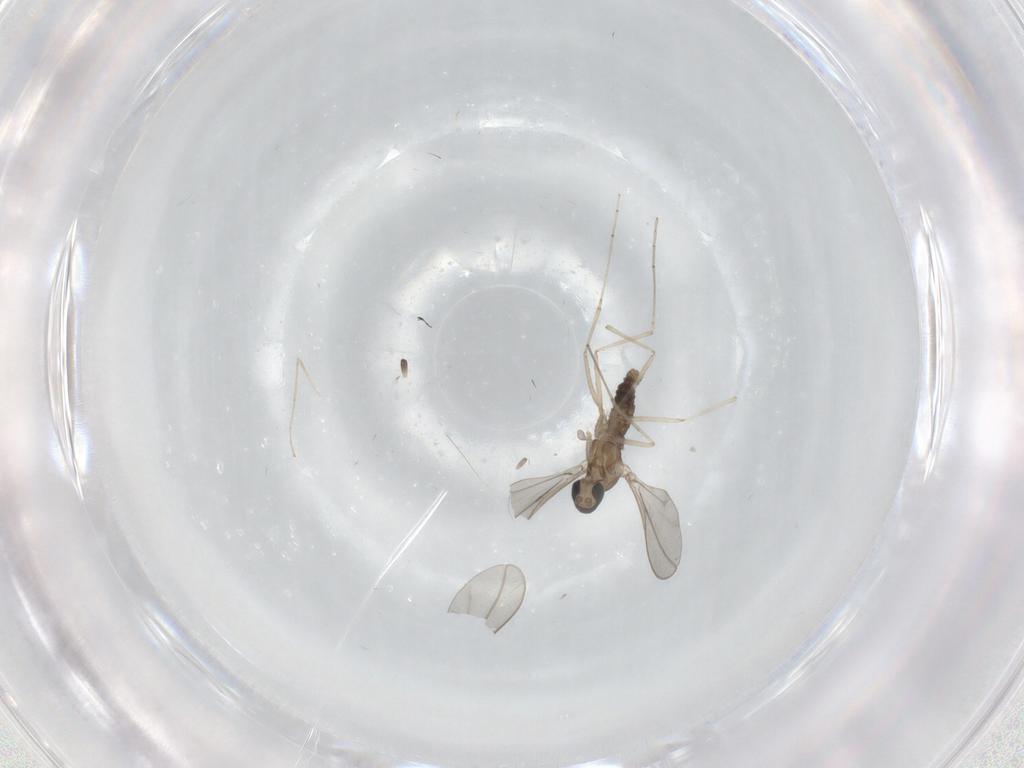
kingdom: Animalia
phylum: Arthropoda
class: Insecta
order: Diptera
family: Cecidomyiidae
